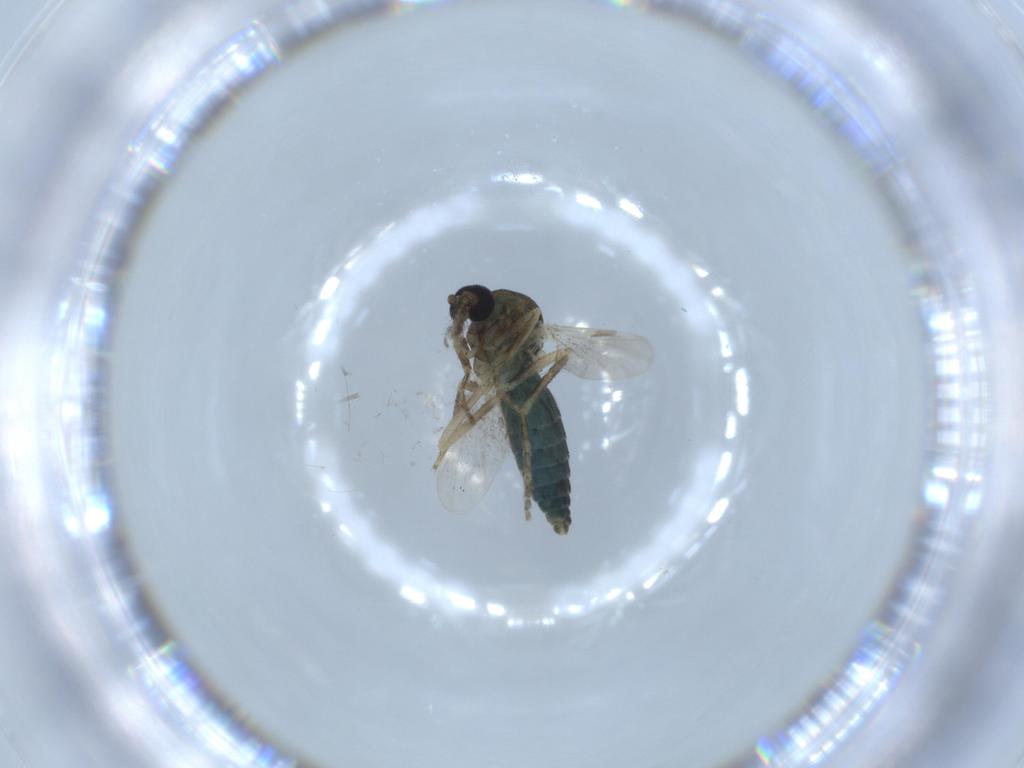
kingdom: Animalia
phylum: Arthropoda
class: Insecta
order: Diptera
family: Ceratopogonidae
